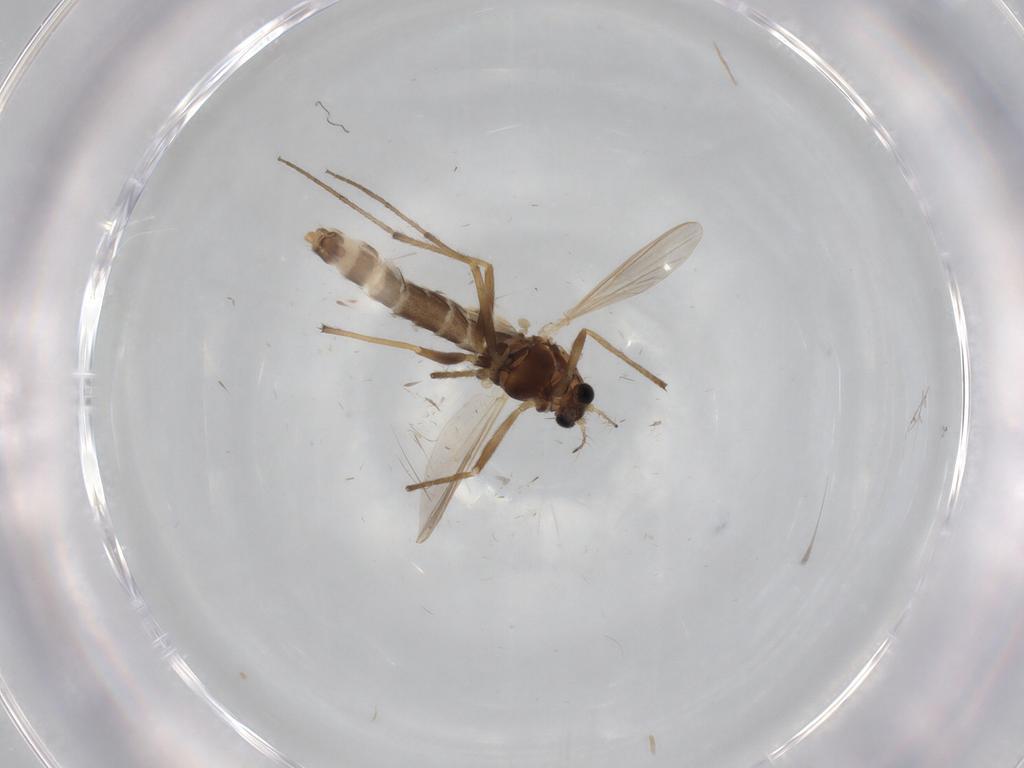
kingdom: Animalia
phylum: Arthropoda
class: Insecta
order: Diptera
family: Chironomidae
